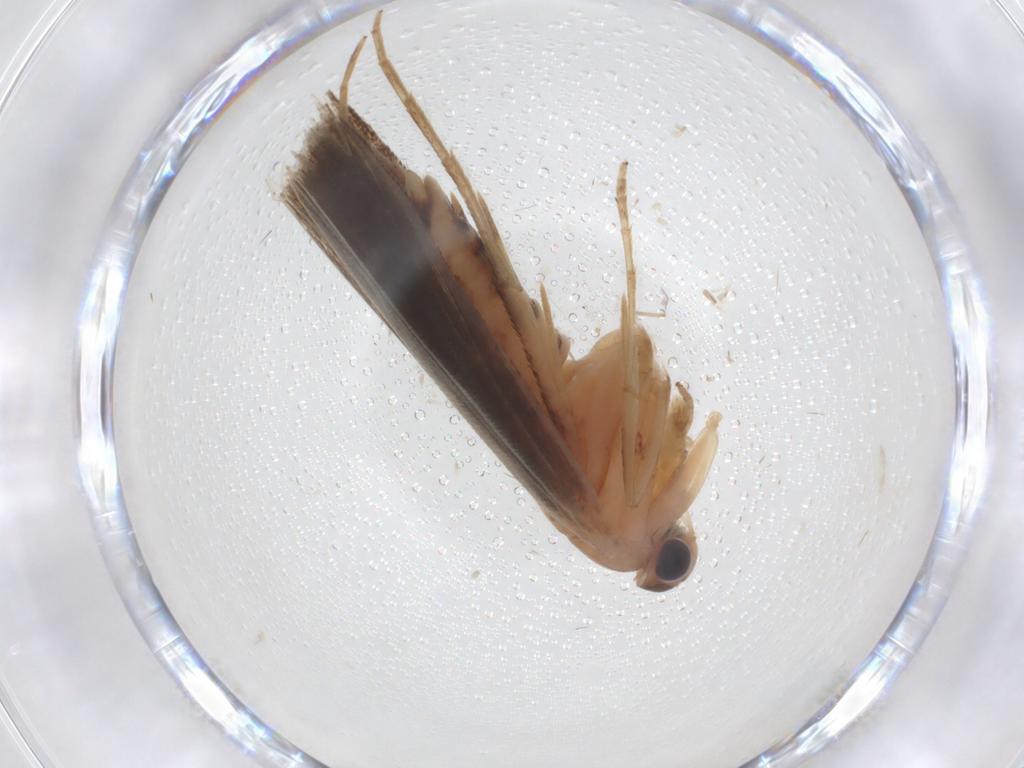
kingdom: Animalia
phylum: Arthropoda
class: Insecta
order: Lepidoptera
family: Yponomeutidae
